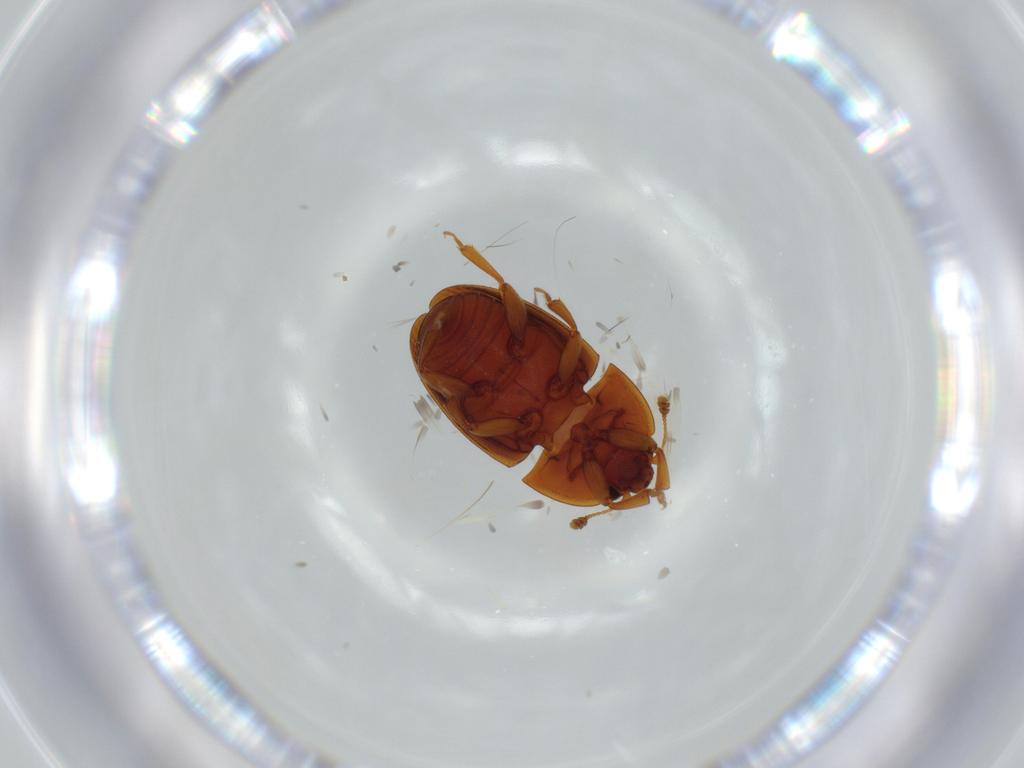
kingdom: Animalia
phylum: Arthropoda
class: Insecta
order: Coleoptera
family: Chrysomelidae
